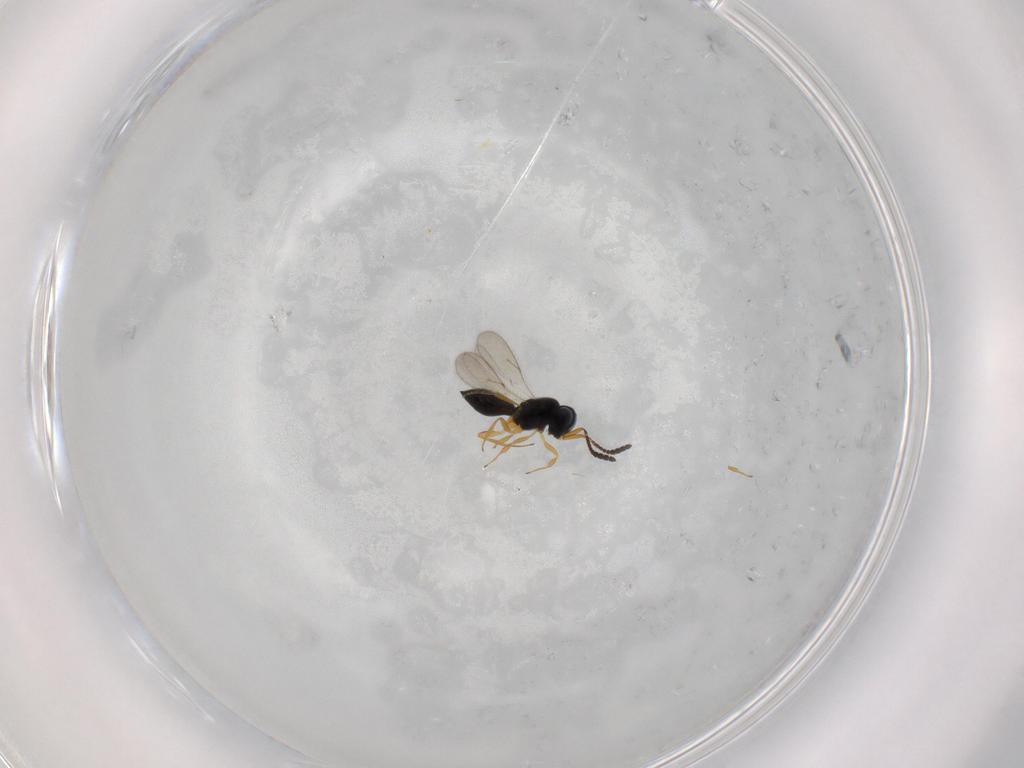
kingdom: Animalia
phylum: Arthropoda
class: Insecta
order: Hymenoptera
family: Scelionidae
